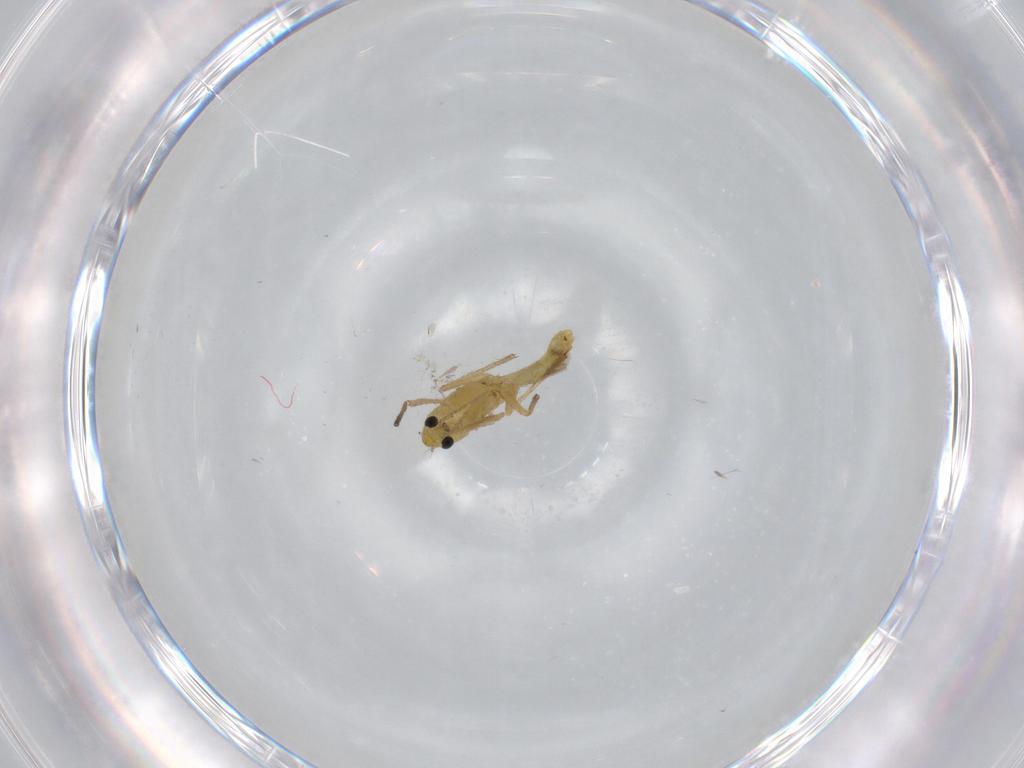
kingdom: Animalia
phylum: Arthropoda
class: Insecta
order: Diptera
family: Chironomidae
